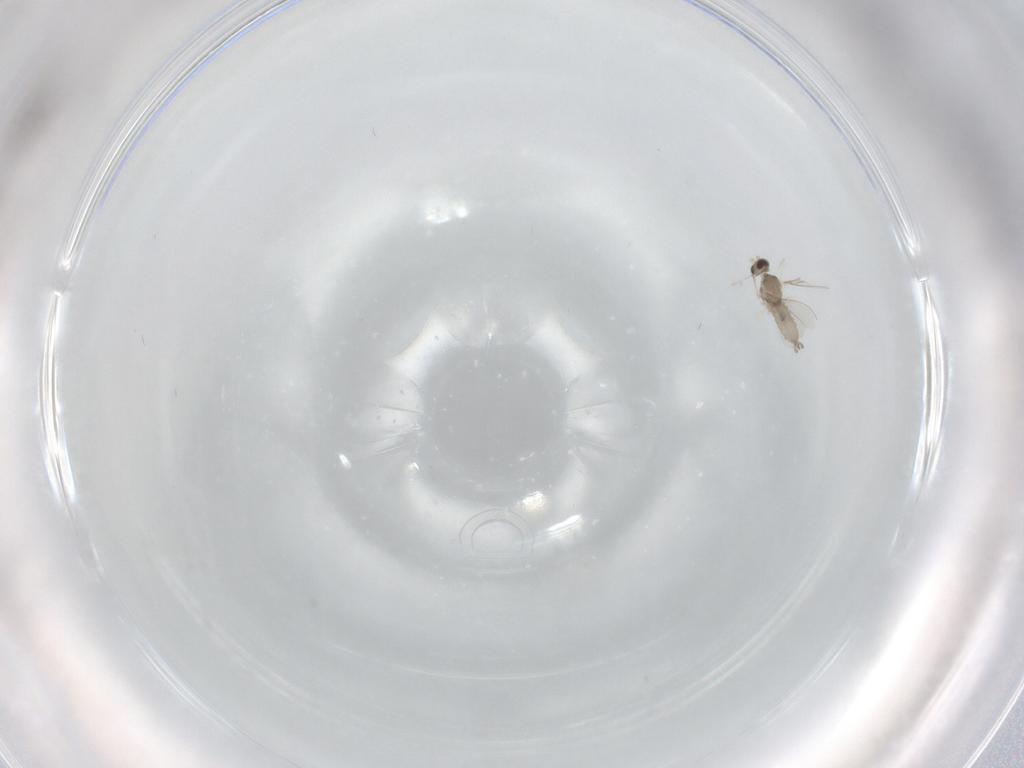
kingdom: Animalia
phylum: Arthropoda
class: Insecta
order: Diptera
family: Cecidomyiidae
